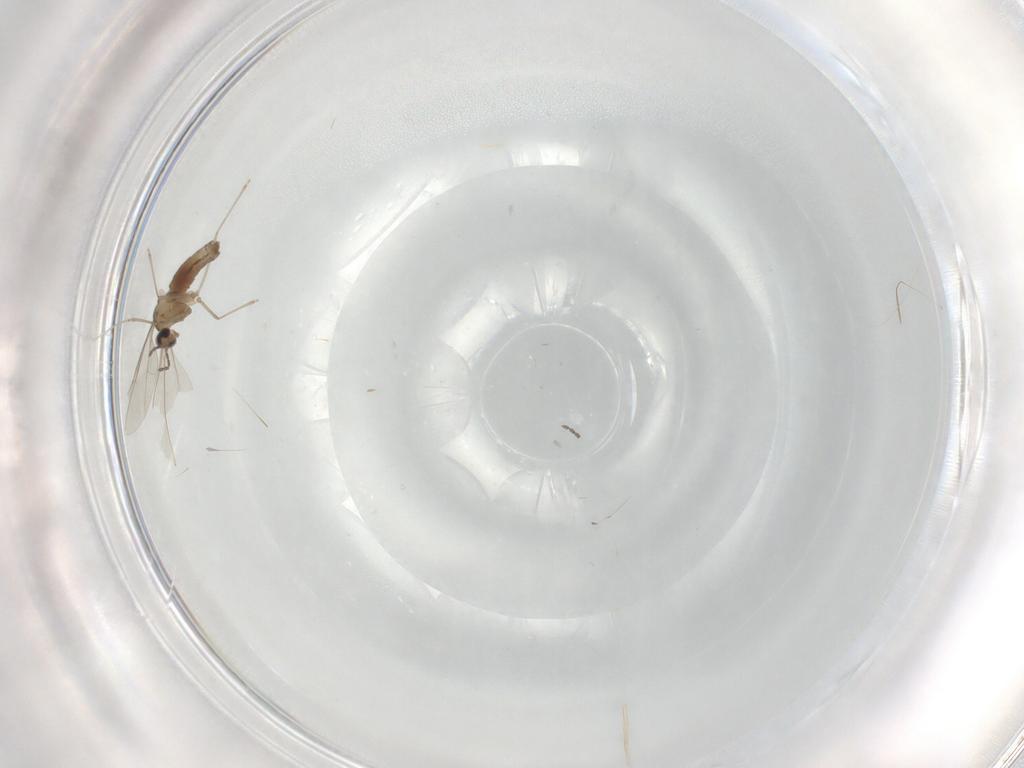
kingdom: Animalia
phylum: Arthropoda
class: Insecta
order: Diptera
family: Cecidomyiidae
